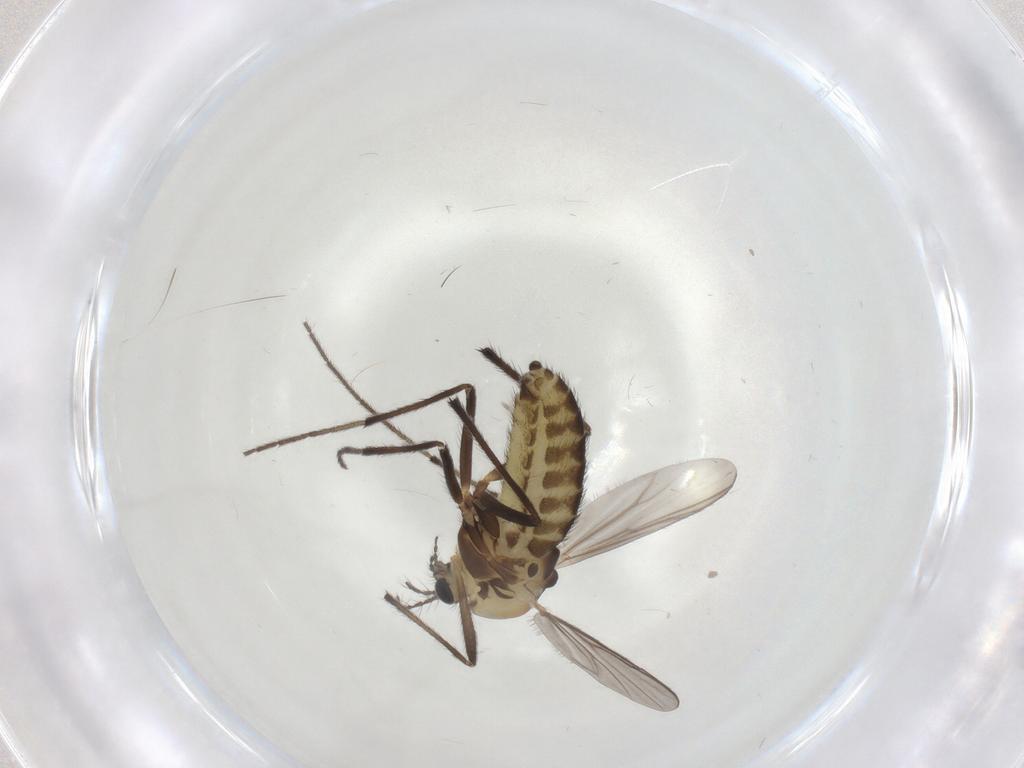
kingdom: Animalia
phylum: Arthropoda
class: Insecta
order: Diptera
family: Chironomidae
